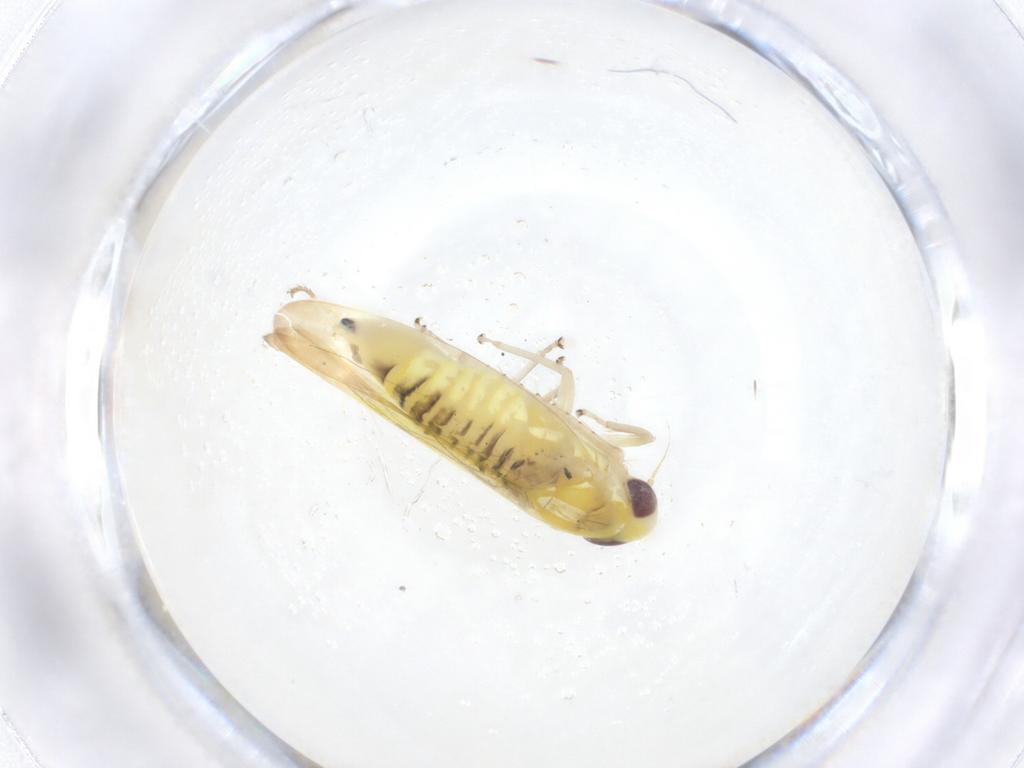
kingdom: Animalia
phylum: Arthropoda
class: Insecta
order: Hemiptera
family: Cicadellidae
